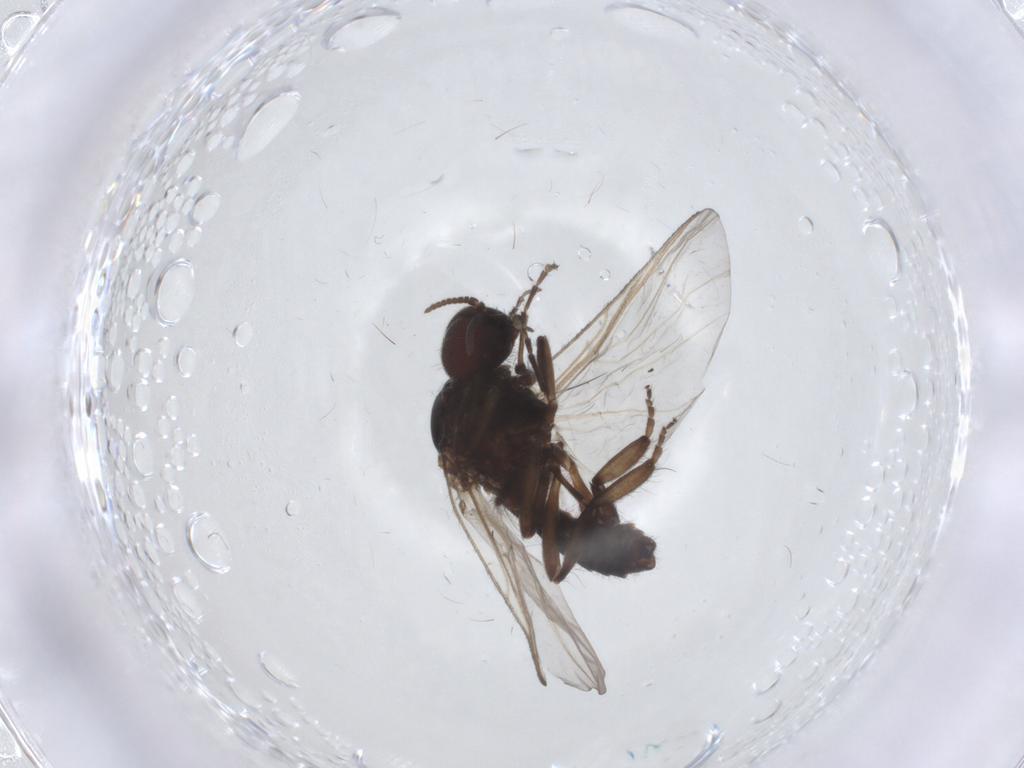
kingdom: Animalia
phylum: Arthropoda
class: Insecta
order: Diptera
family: Simuliidae
